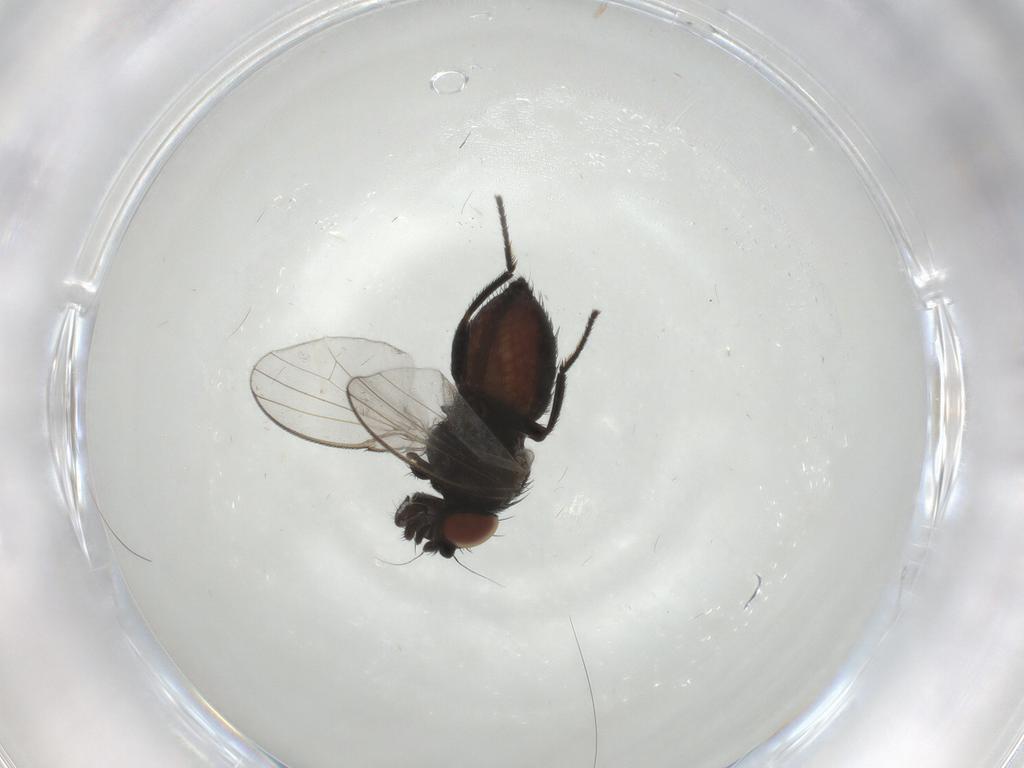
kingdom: Animalia
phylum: Arthropoda
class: Insecta
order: Diptera
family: Milichiidae
